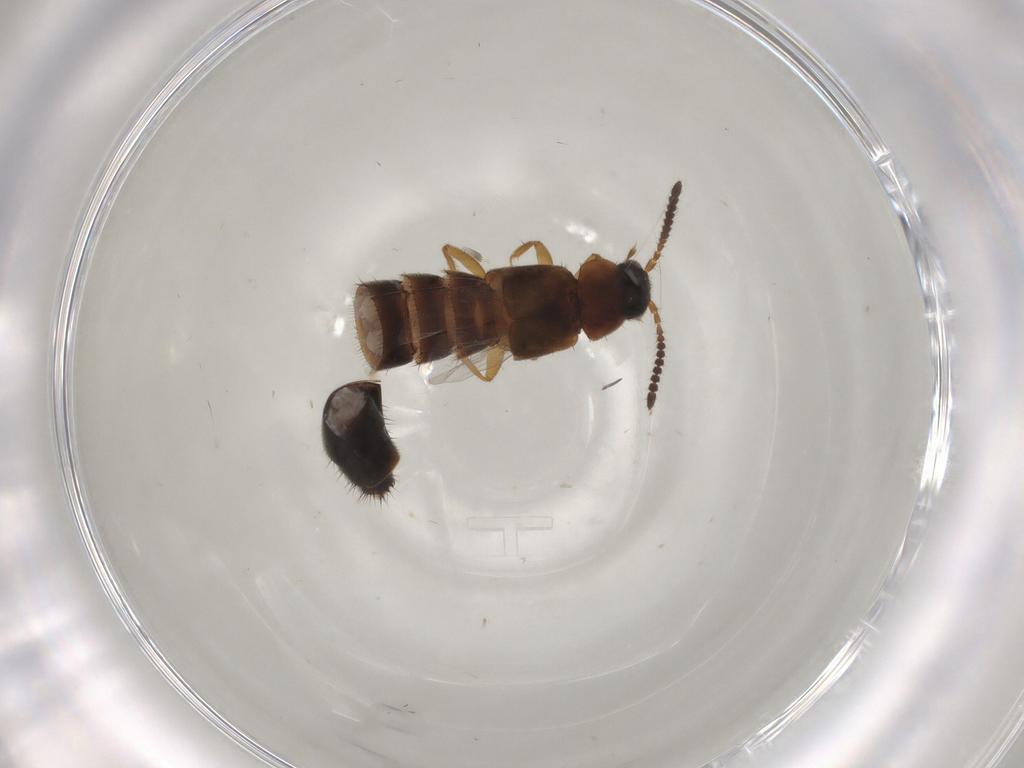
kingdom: Animalia
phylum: Arthropoda
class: Insecta
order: Coleoptera
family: Staphylinidae
